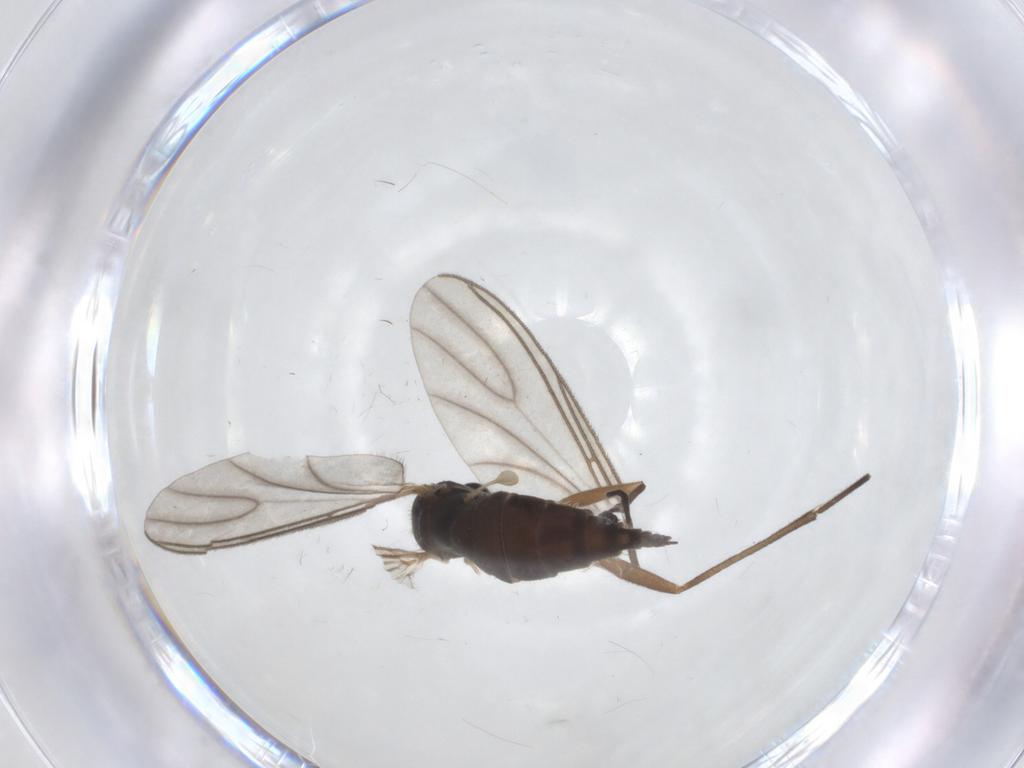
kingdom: Animalia
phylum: Arthropoda
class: Insecta
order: Diptera
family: Sciaridae
